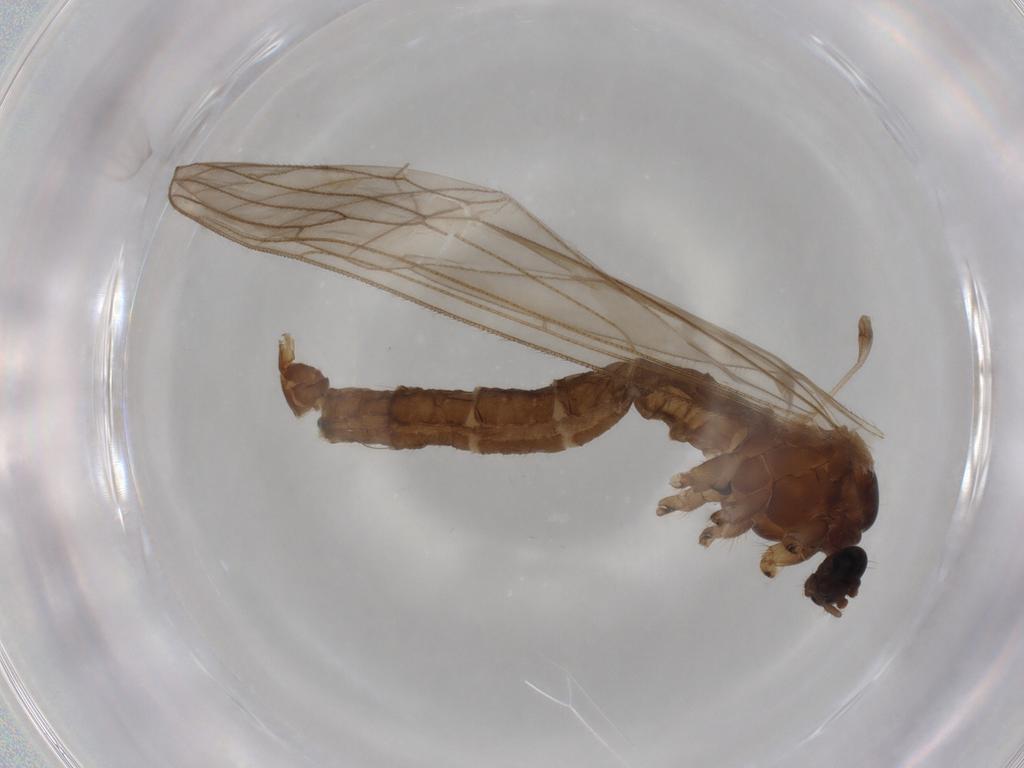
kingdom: Animalia
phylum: Arthropoda
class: Insecta
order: Diptera
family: Trichoceridae
